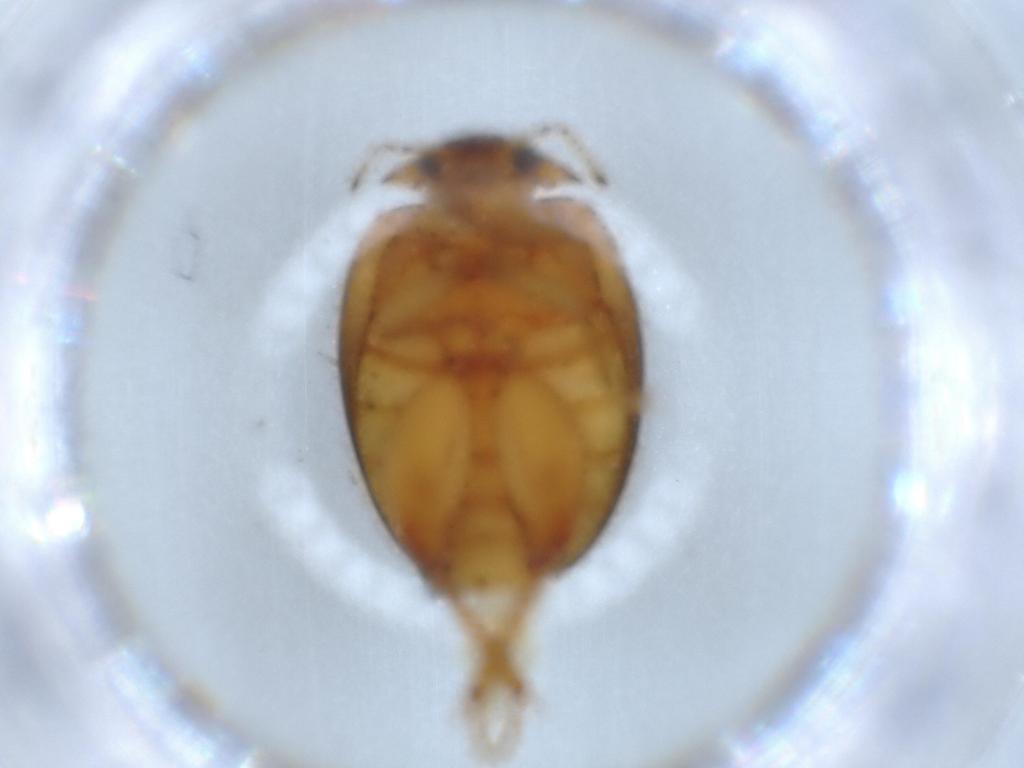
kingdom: Animalia
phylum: Arthropoda
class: Insecta
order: Coleoptera
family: Scirtidae
